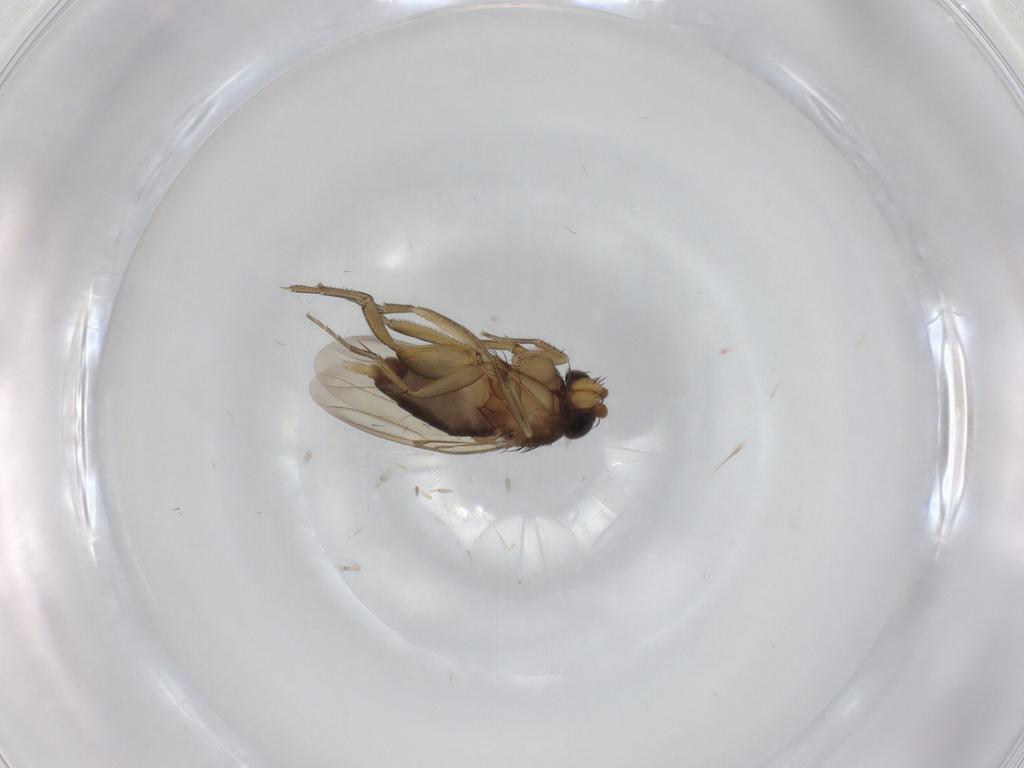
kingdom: Animalia
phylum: Arthropoda
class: Insecta
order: Diptera
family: Phoridae
